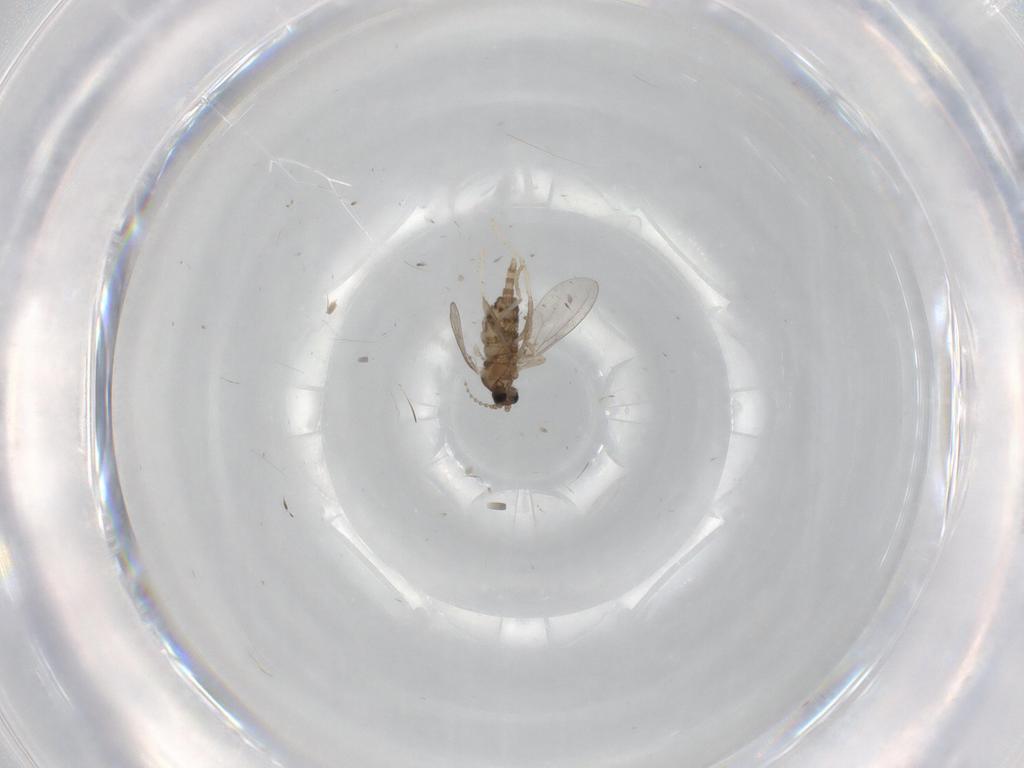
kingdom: Animalia
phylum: Arthropoda
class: Insecta
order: Diptera
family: Cecidomyiidae
